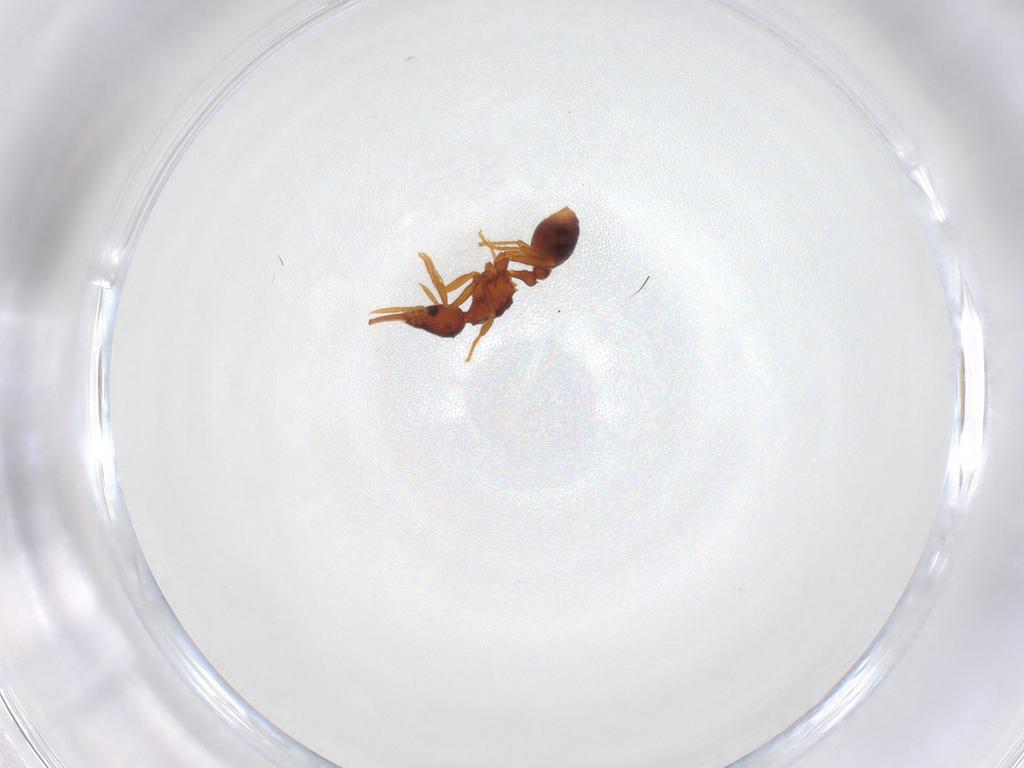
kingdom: Animalia
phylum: Arthropoda
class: Insecta
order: Hymenoptera
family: Formicidae
